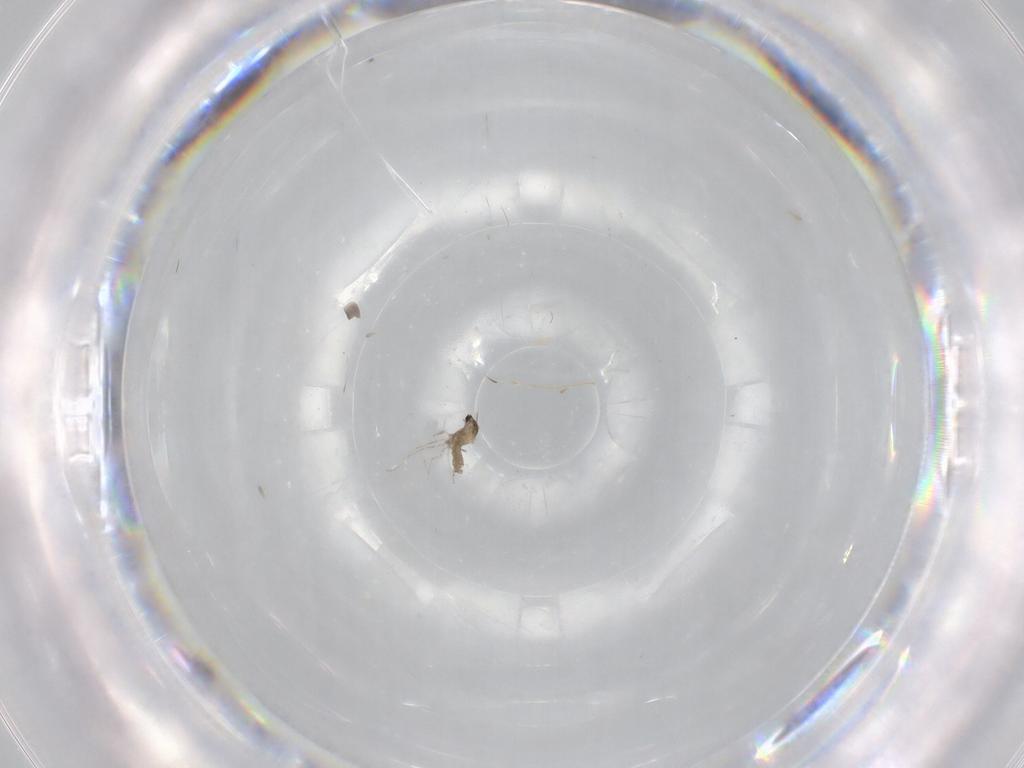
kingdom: Animalia
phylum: Arthropoda
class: Insecta
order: Diptera
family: Cecidomyiidae
